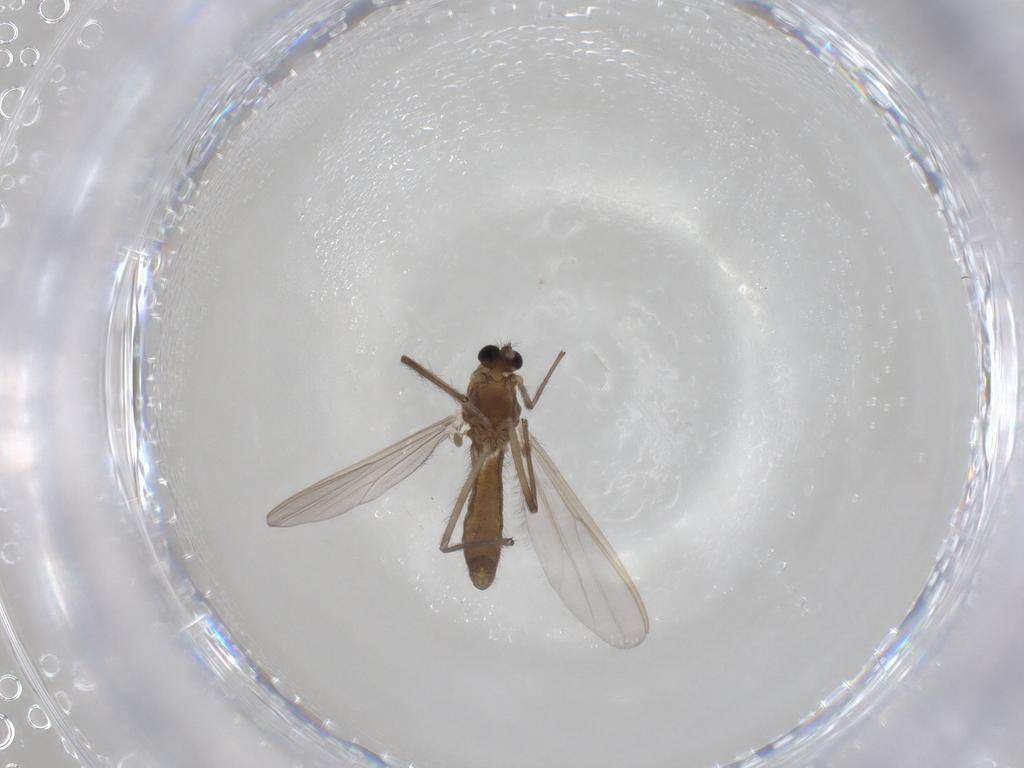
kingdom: Animalia
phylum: Arthropoda
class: Insecta
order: Diptera
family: Chironomidae
